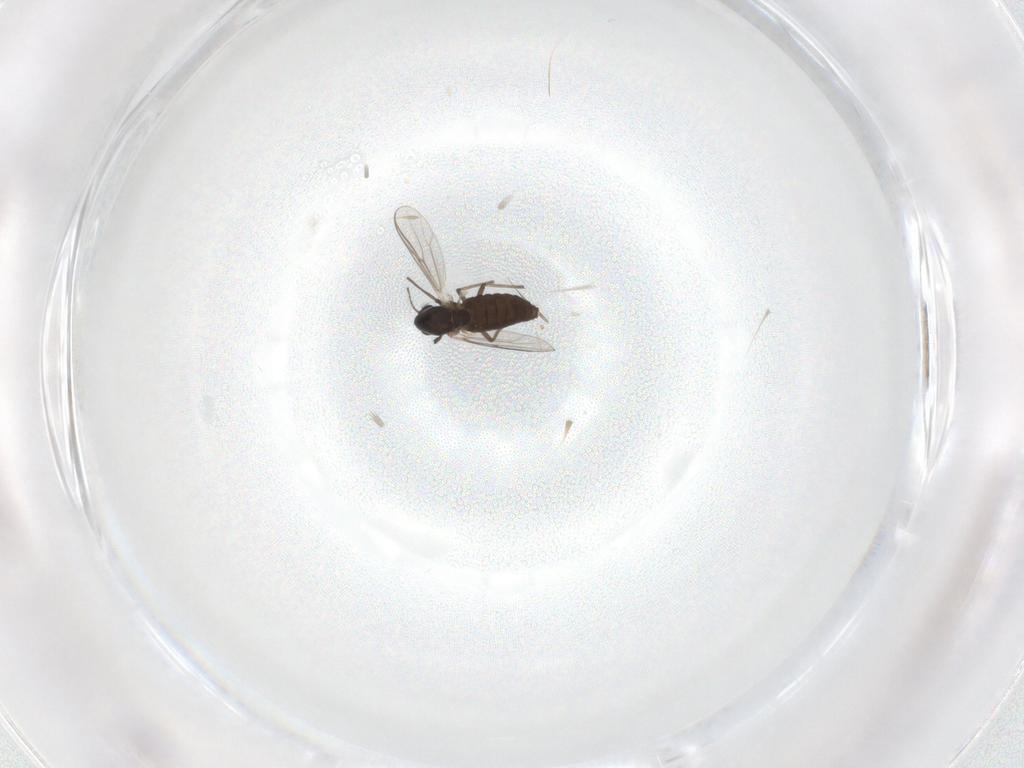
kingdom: Animalia
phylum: Arthropoda
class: Insecta
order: Diptera
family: Chironomidae
